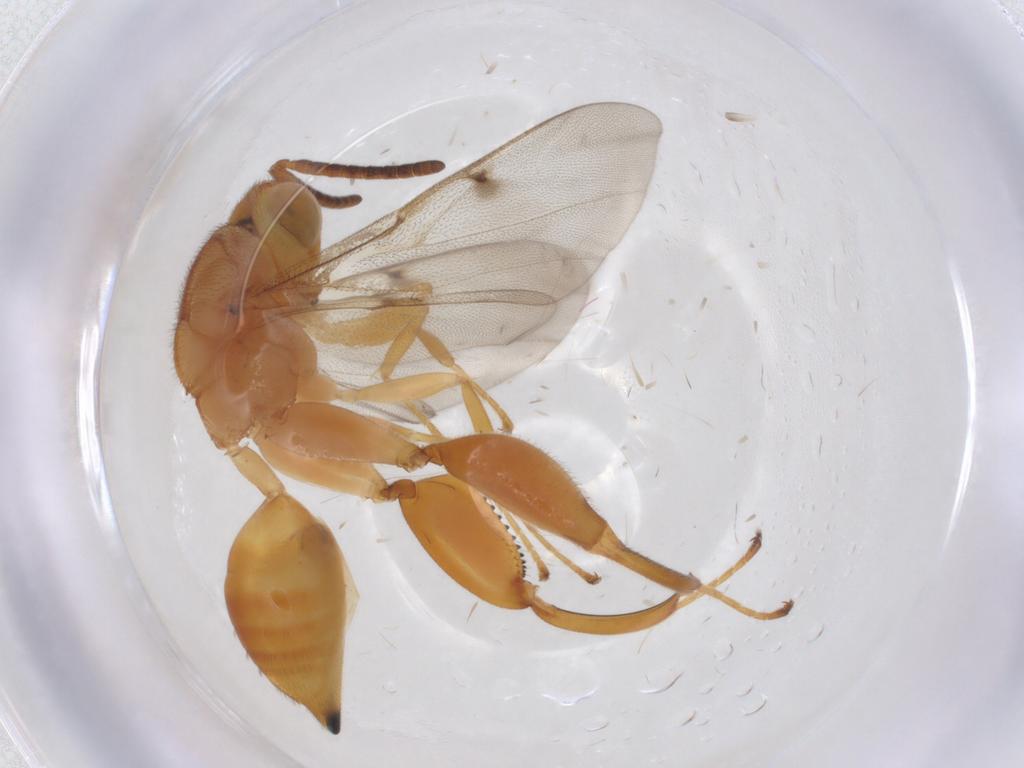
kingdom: Animalia
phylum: Arthropoda
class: Insecta
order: Hymenoptera
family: Chalcididae
